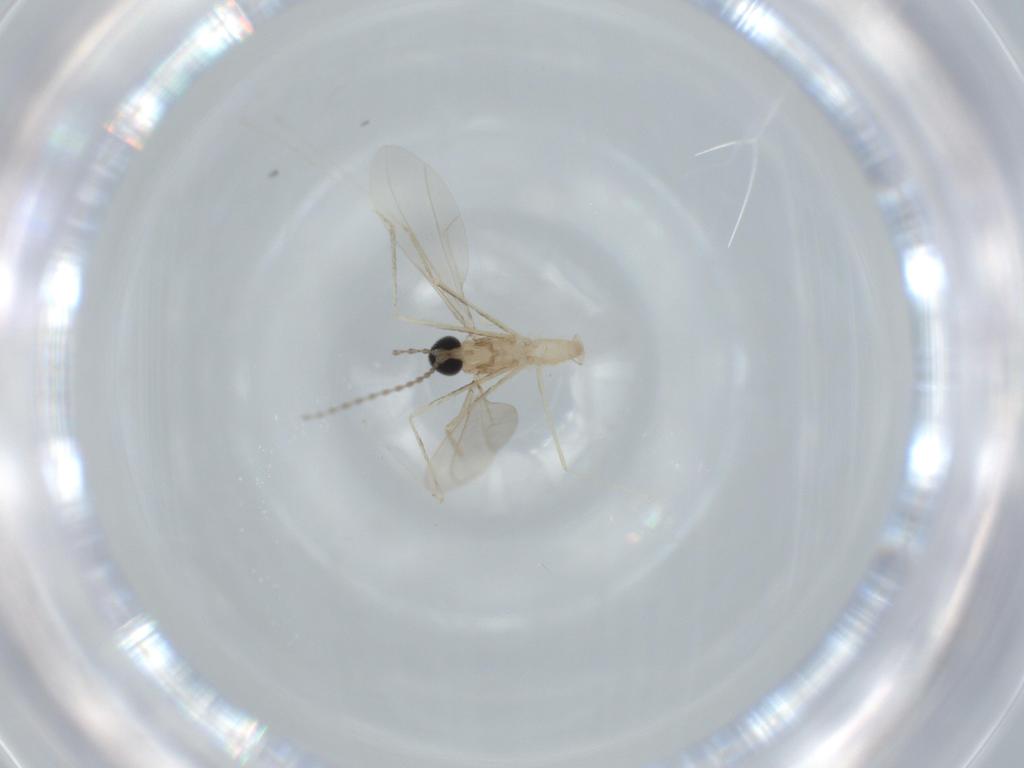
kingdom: Animalia
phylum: Arthropoda
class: Insecta
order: Diptera
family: Cecidomyiidae
